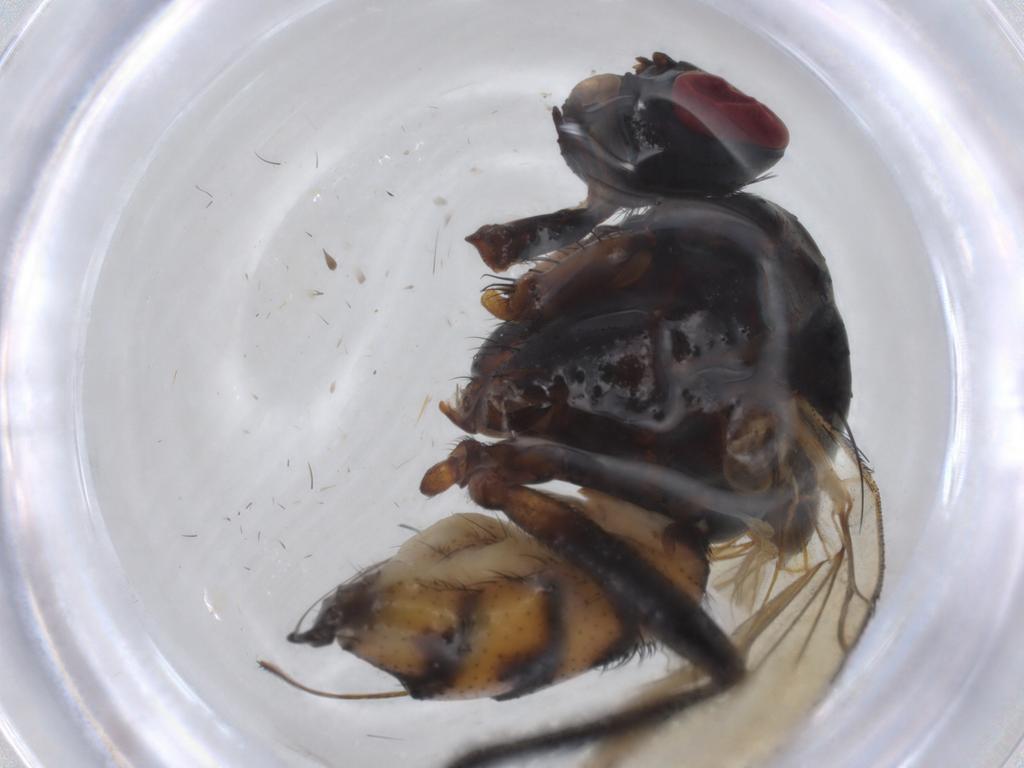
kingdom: Animalia
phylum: Arthropoda
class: Insecta
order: Diptera
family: Anthomyiidae
